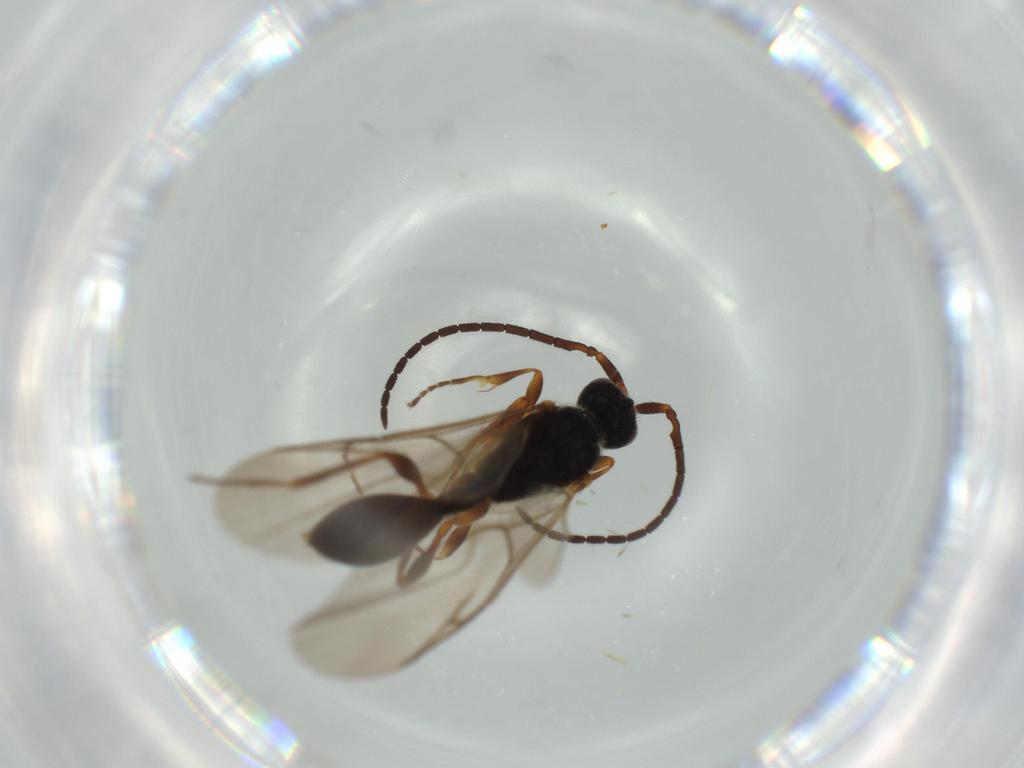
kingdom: Animalia
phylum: Arthropoda
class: Insecta
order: Hymenoptera
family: Diapriidae
